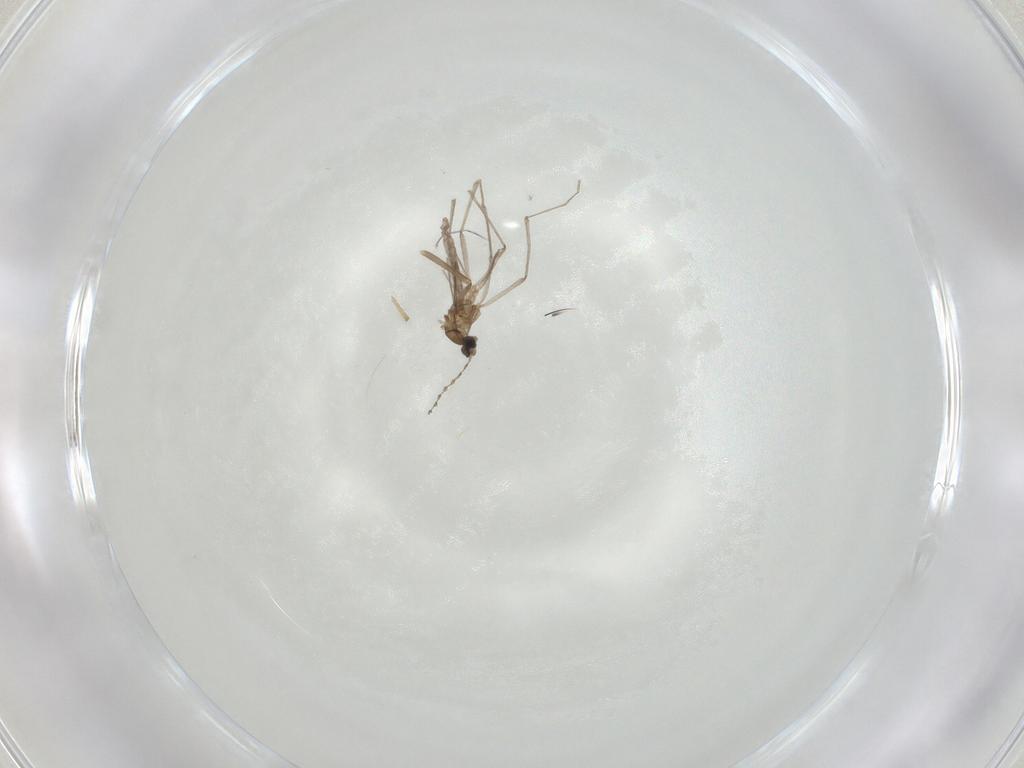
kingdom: Animalia
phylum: Arthropoda
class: Insecta
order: Diptera
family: Cecidomyiidae
